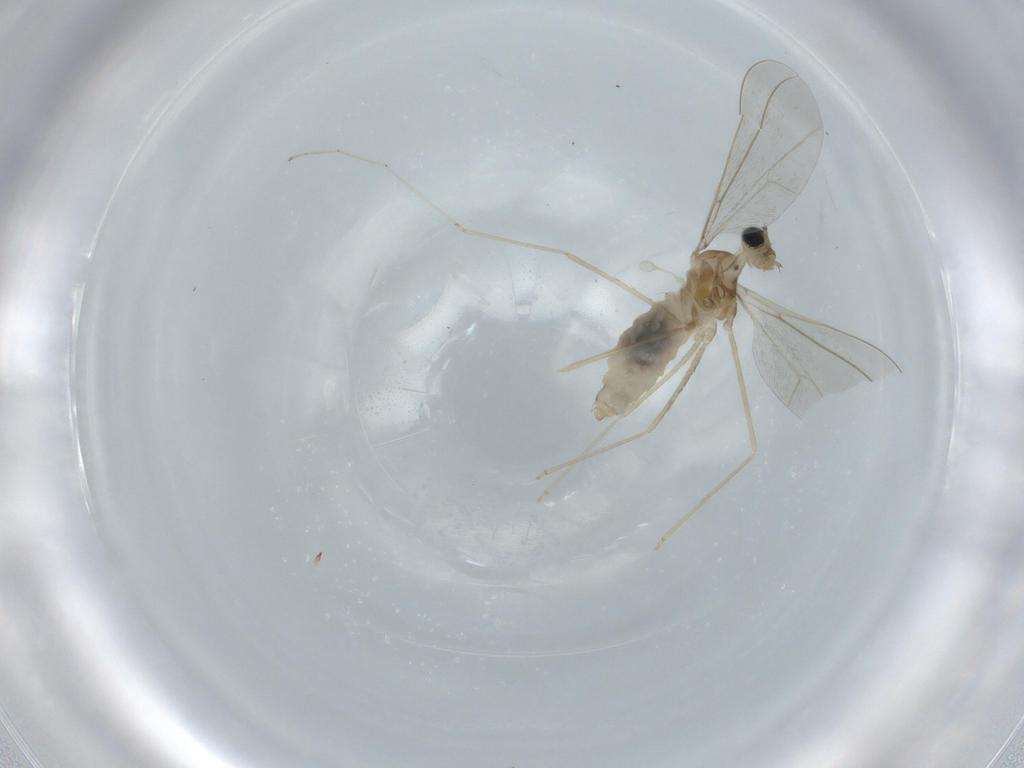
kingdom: Animalia
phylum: Arthropoda
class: Insecta
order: Diptera
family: Cecidomyiidae
